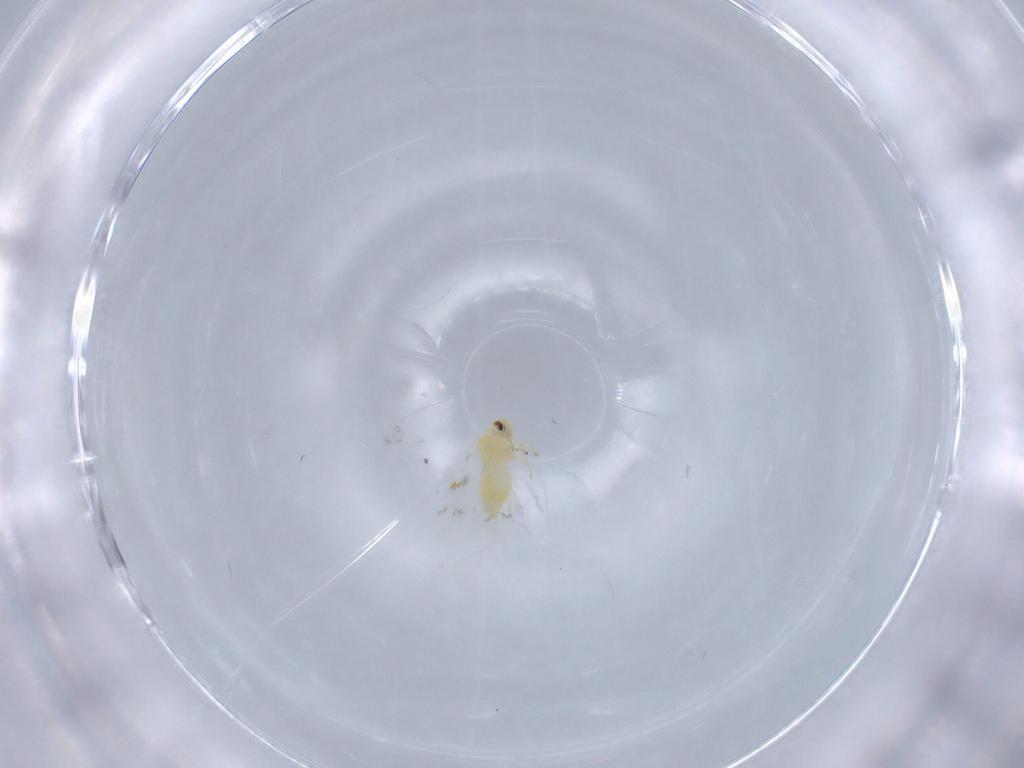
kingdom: Animalia
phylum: Arthropoda
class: Insecta
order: Hemiptera
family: Aleyrodidae
